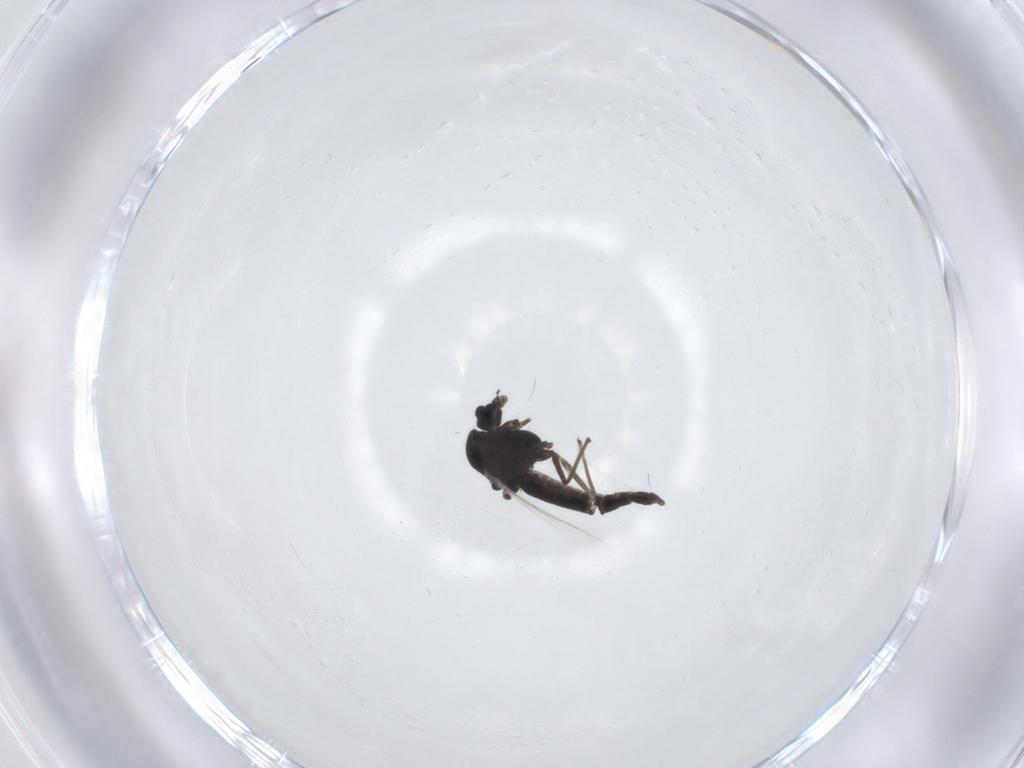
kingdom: Animalia
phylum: Arthropoda
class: Insecta
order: Diptera
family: Chironomidae
